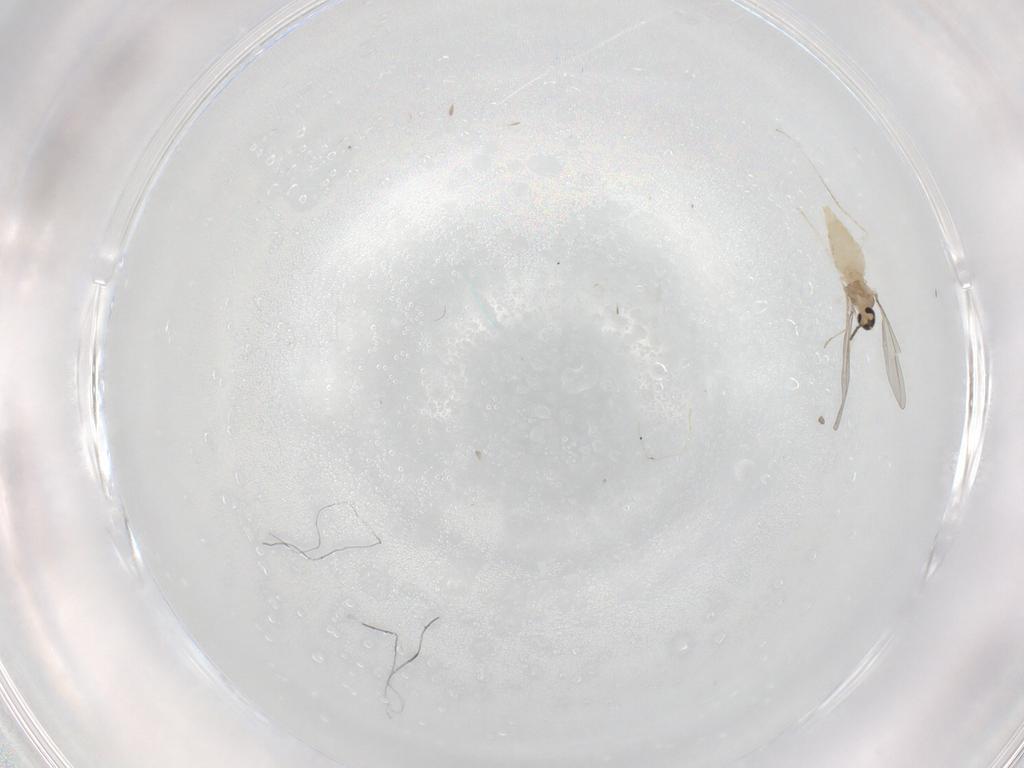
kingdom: Animalia
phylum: Arthropoda
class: Insecta
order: Diptera
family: Cecidomyiidae
